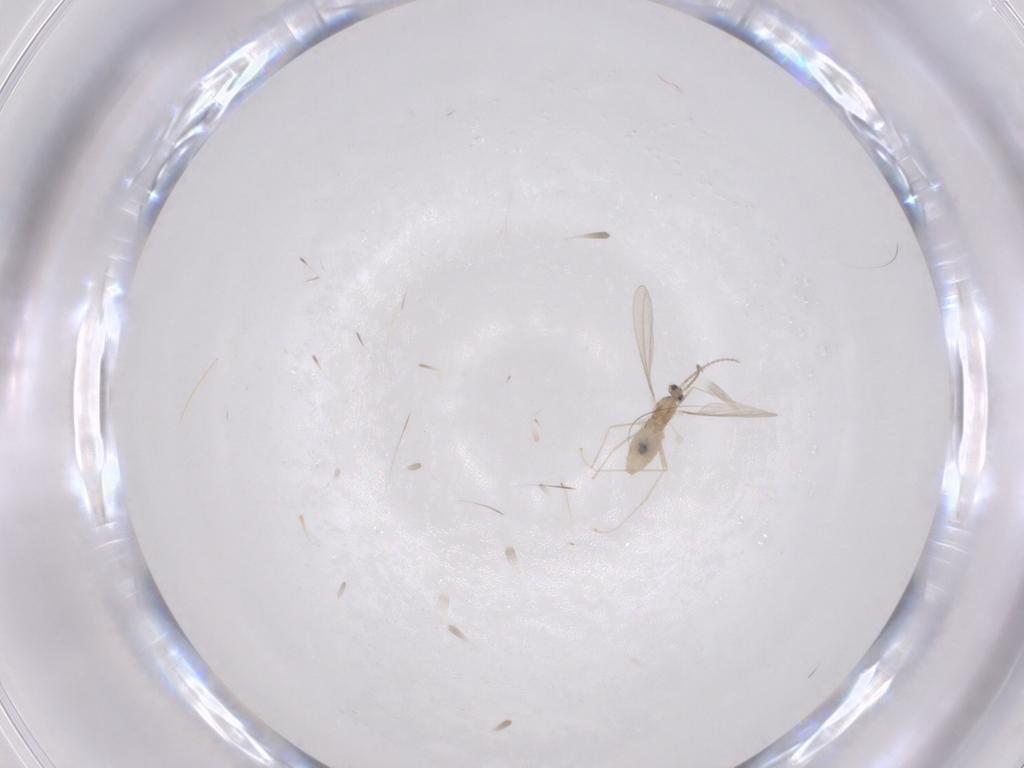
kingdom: Animalia
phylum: Arthropoda
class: Insecta
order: Diptera
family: Cecidomyiidae
